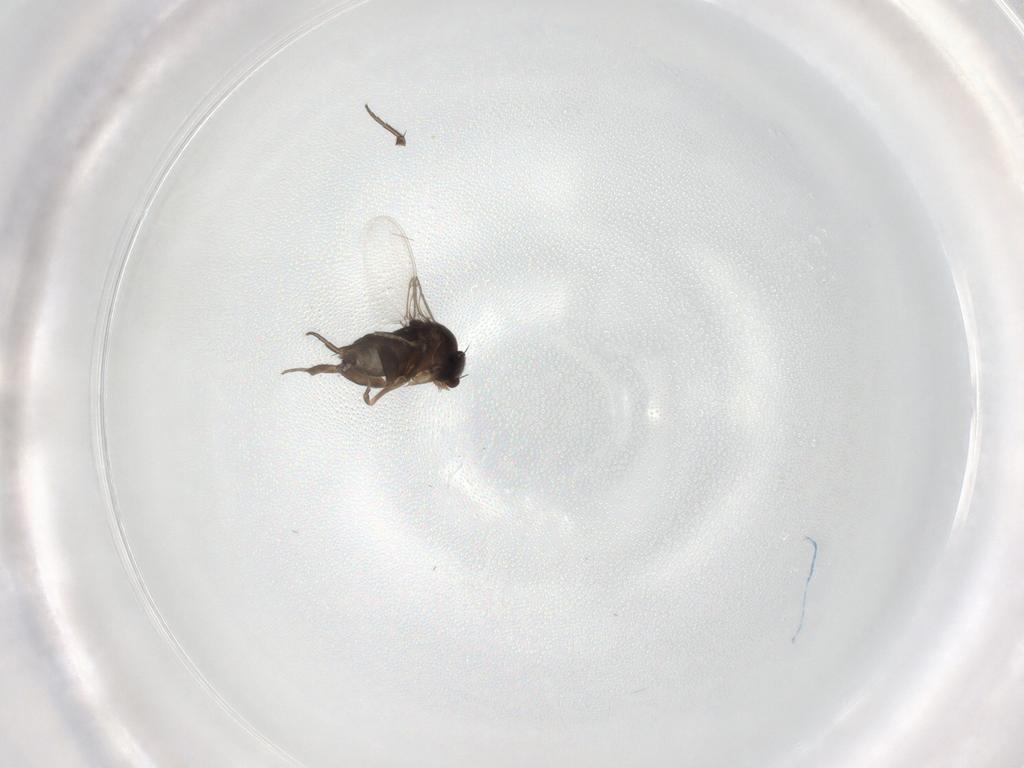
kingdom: Animalia
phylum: Arthropoda
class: Insecta
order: Diptera
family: Phoridae
